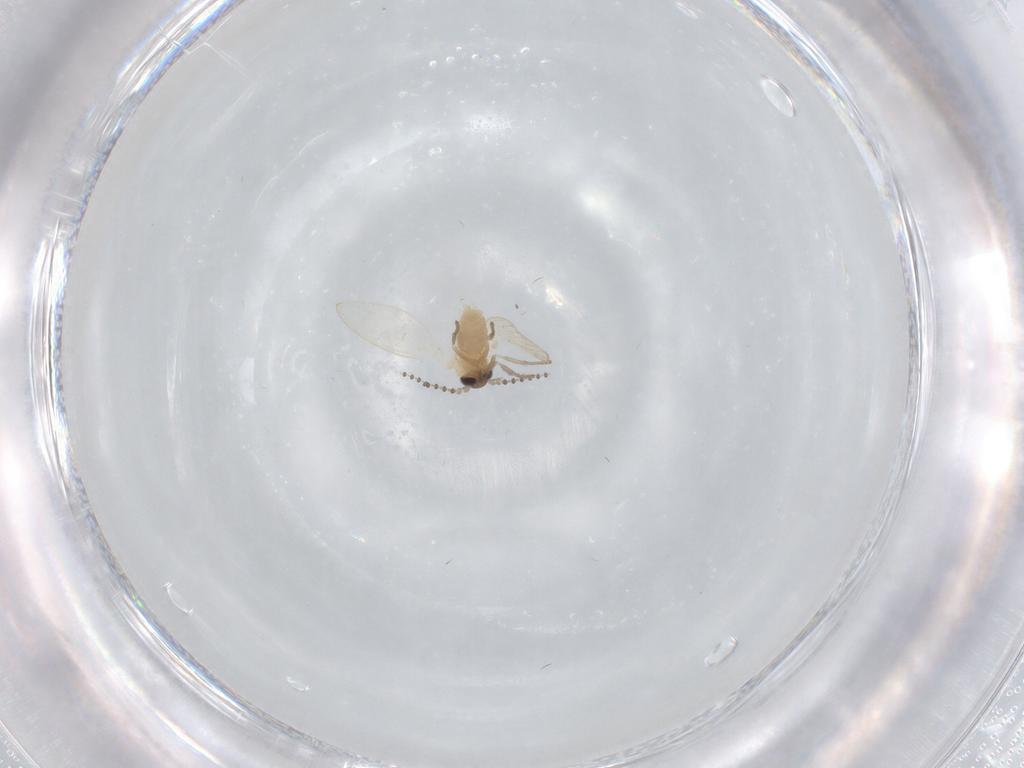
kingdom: Animalia
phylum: Arthropoda
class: Insecta
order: Diptera
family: Psychodidae
